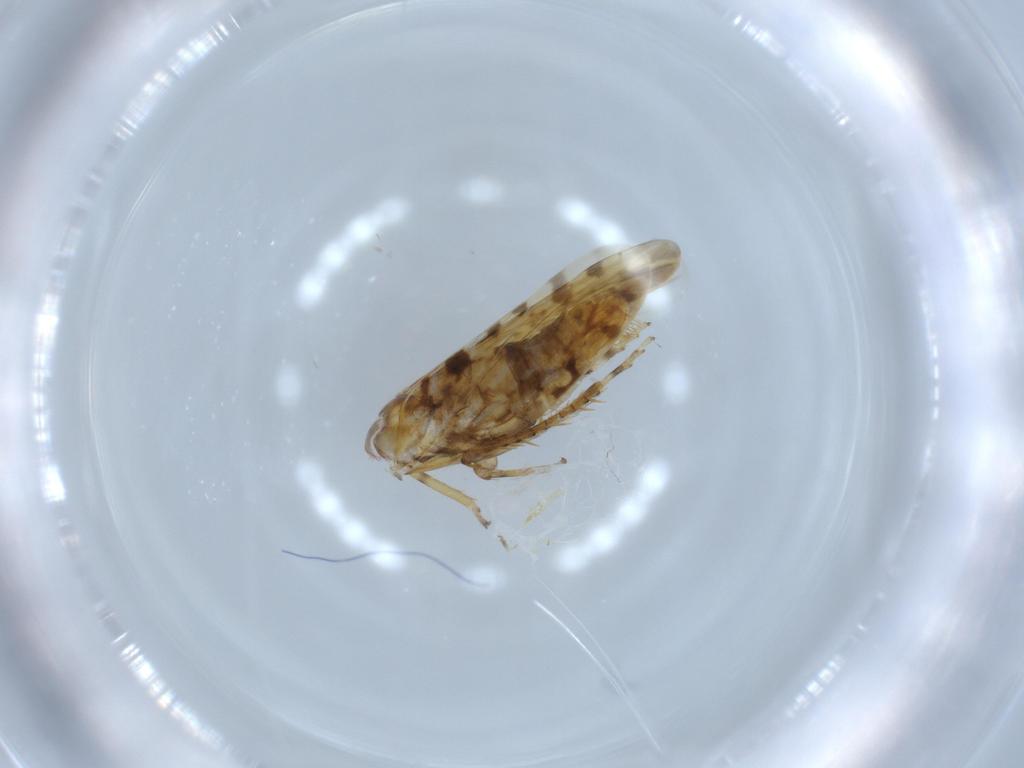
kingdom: Animalia
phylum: Arthropoda
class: Insecta
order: Hemiptera
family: Cicadellidae
